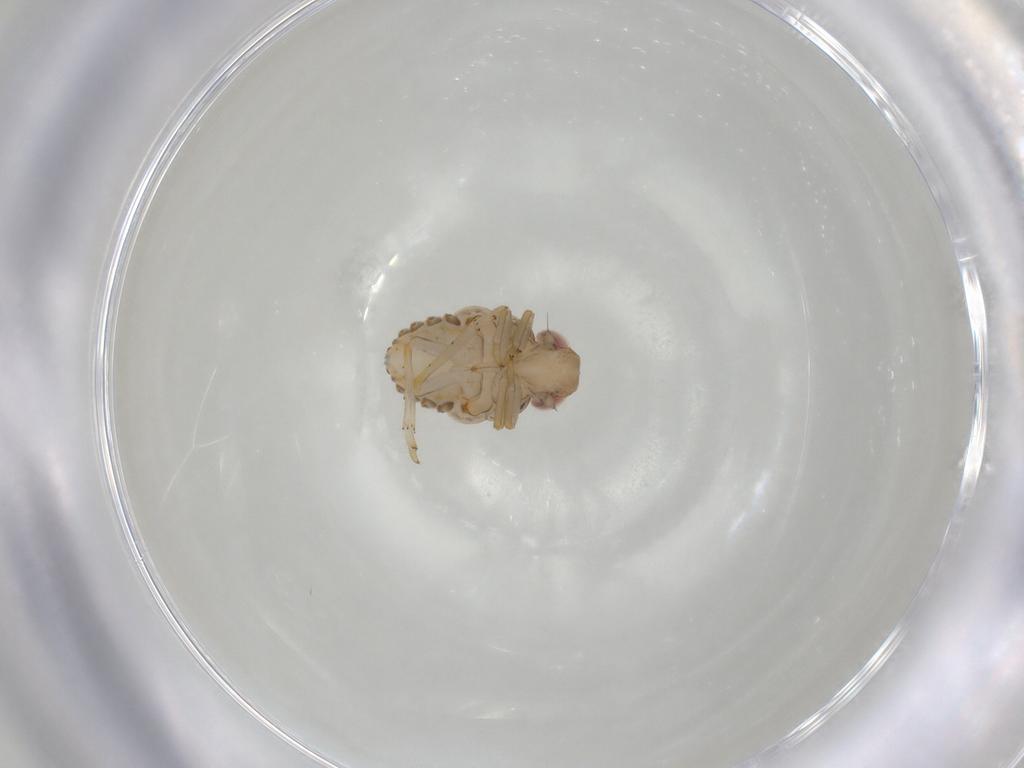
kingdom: Animalia
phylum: Arthropoda
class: Insecta
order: Hemiptera
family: Issidae
